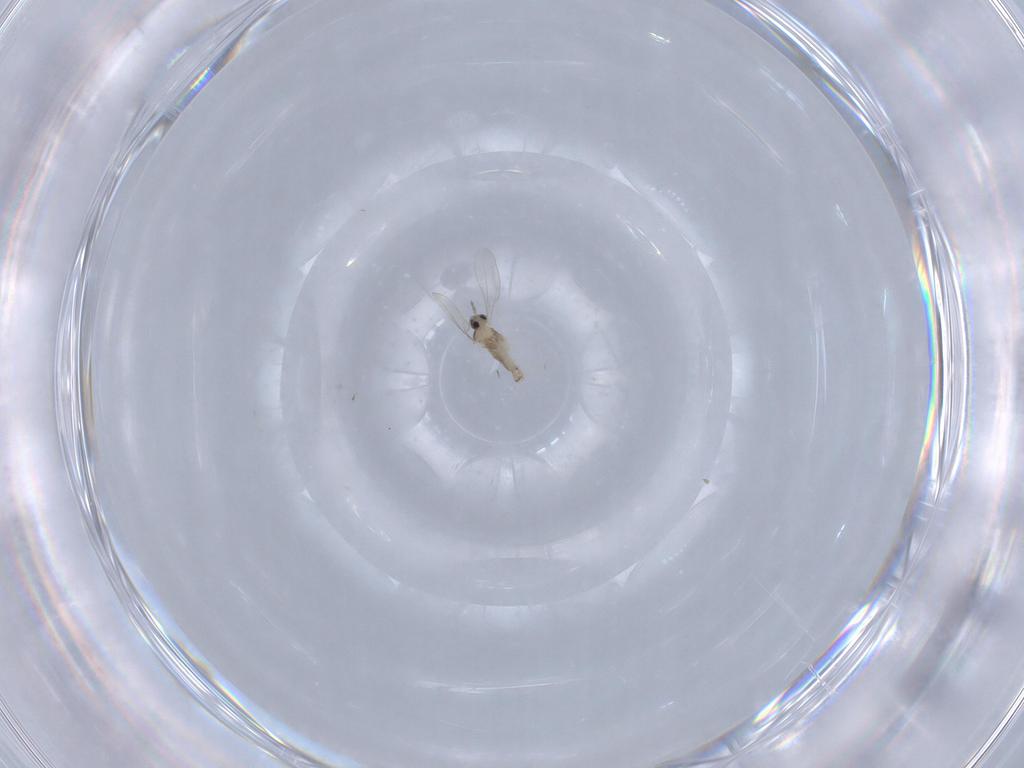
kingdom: Animalia
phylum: Arthropoda
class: Insecta
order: Diptera
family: Cecidomyiidae
